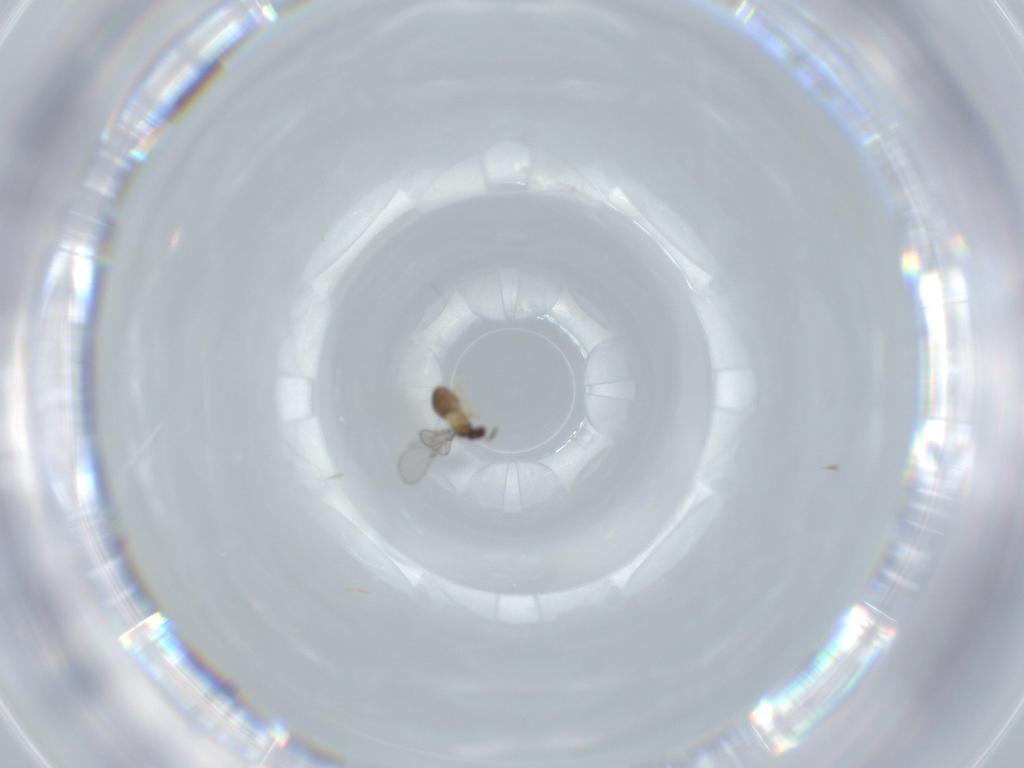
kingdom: Animalia
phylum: Arthropoda
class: Insecta
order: Hymenoptera
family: Trichogrammatidae
